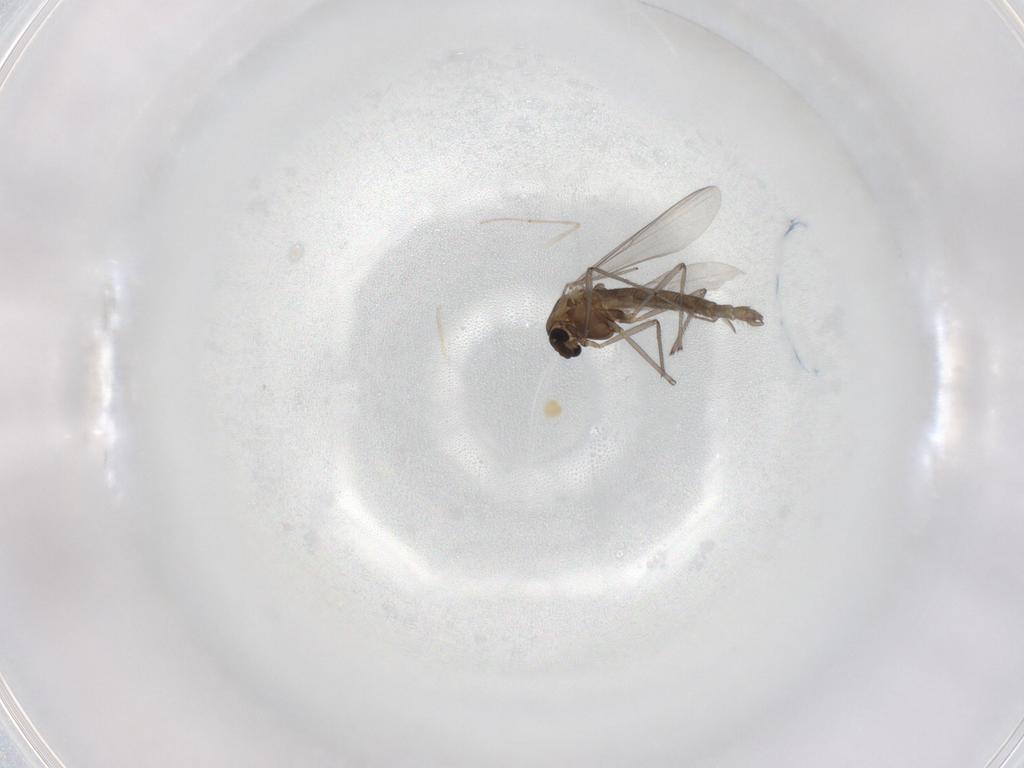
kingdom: Animalia
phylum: Arthropoda
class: Insecta
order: Diptera
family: Chironomidae
